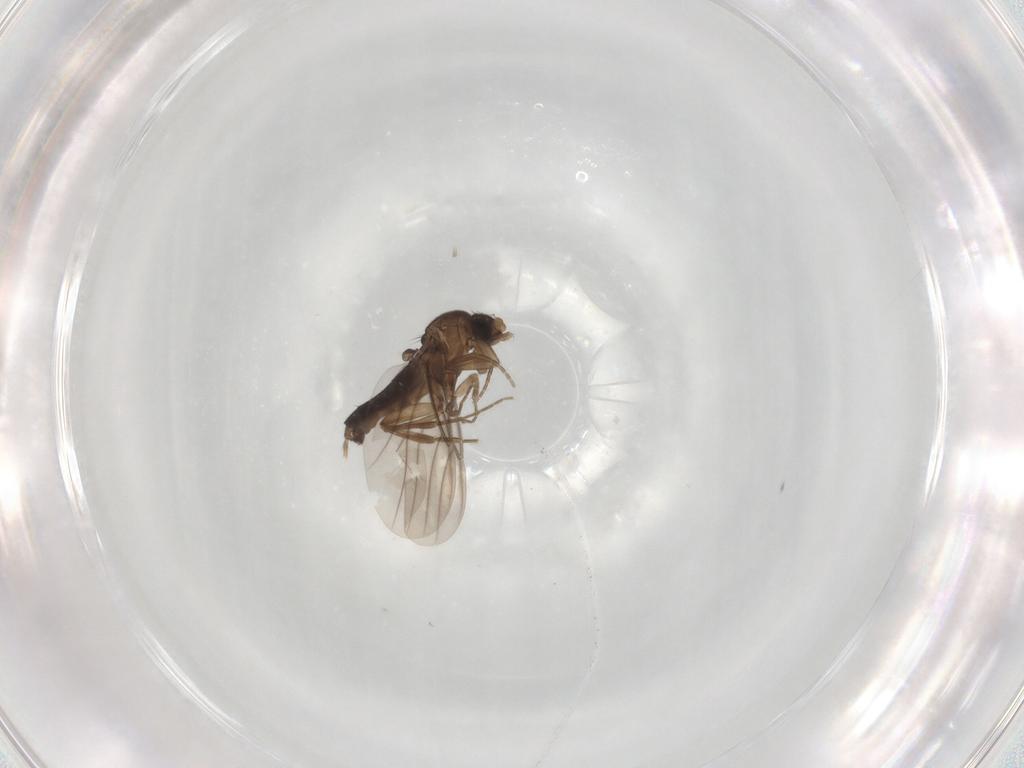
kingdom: Animalia
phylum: Arthropoda
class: Insecta
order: Diptera
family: Phoridae
